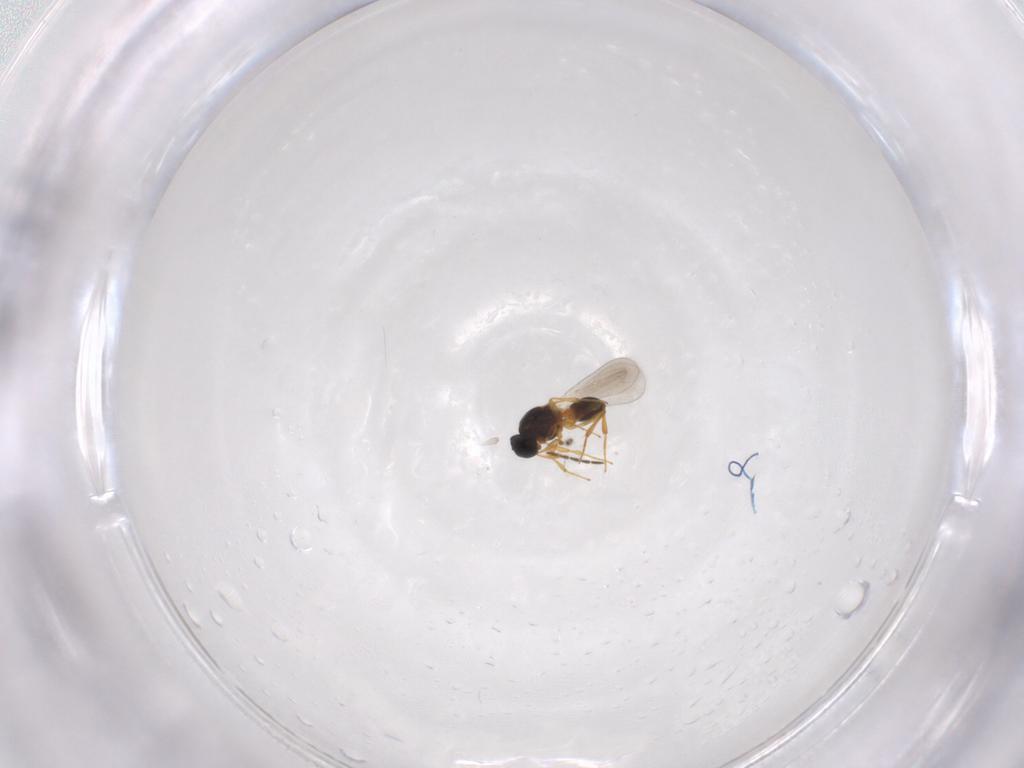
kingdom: Animalia
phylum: Arthropoda
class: Insecta
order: Hymenoptera
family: Platygastridae
